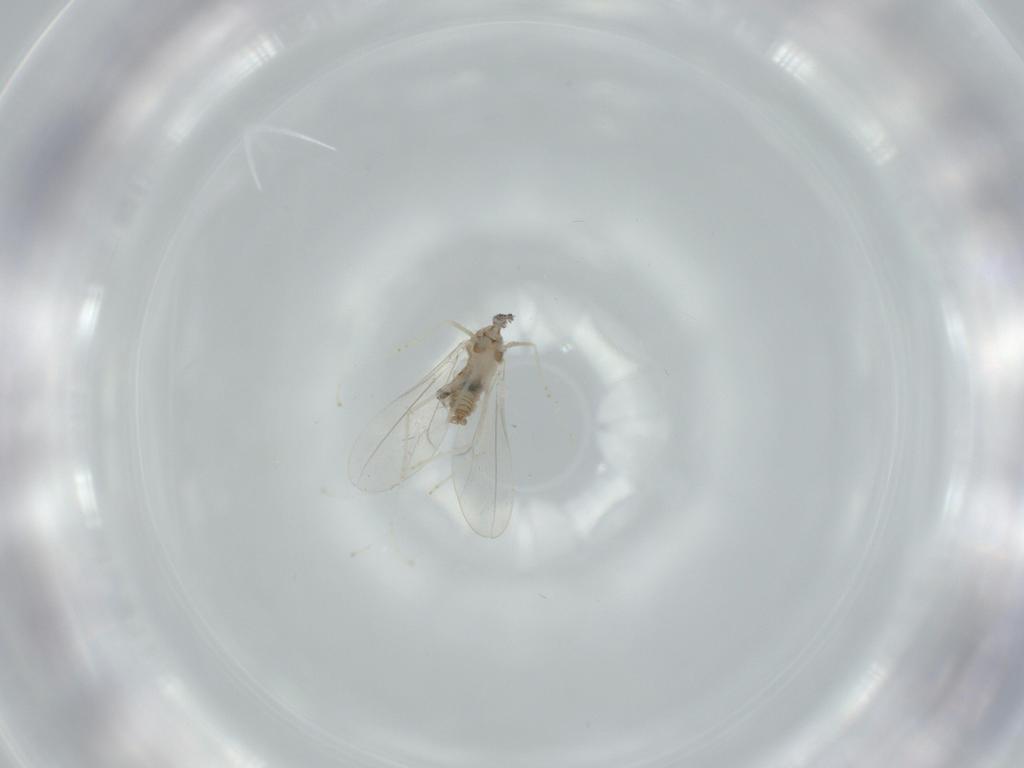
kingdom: Animalia
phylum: Arthropoda
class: Insecta
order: Diptera
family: Cecidomyiidae
